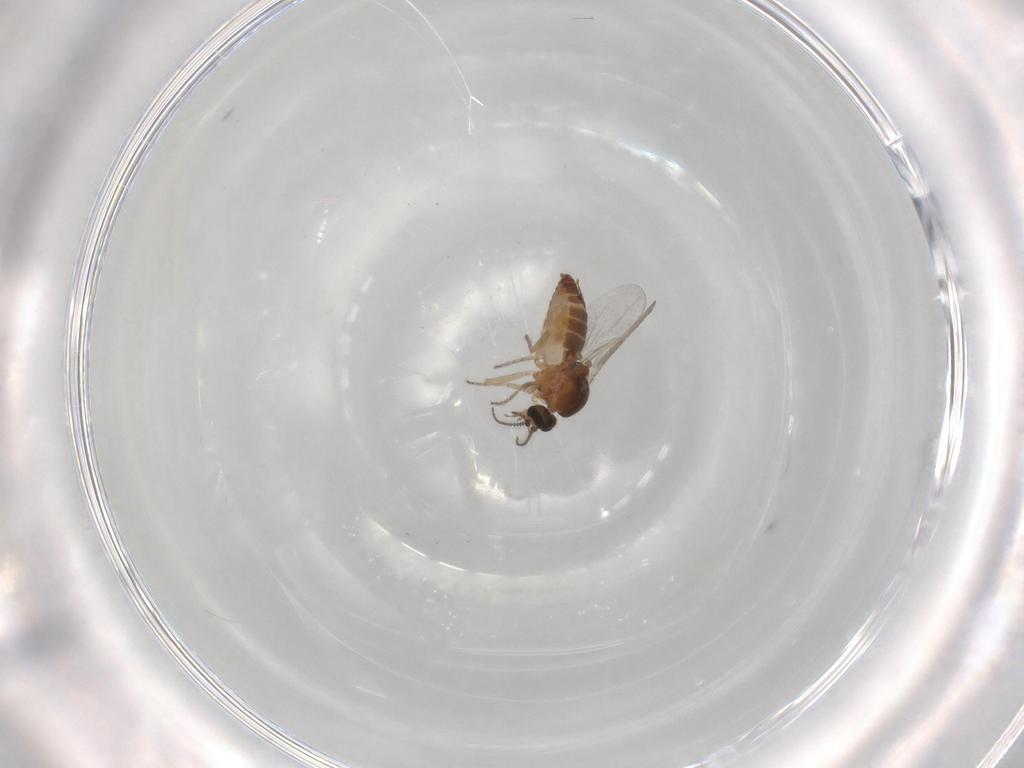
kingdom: Animalia
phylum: Arthropoda
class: Insecta
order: Diptera
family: Ceratopogonidae
